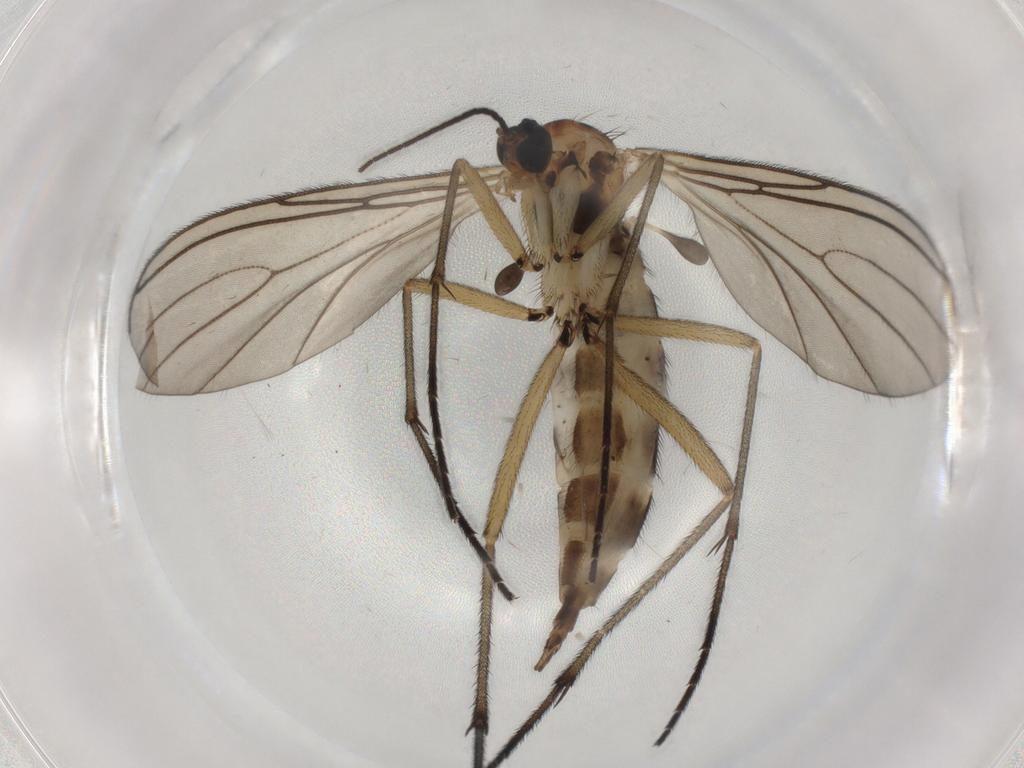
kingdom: Animalia
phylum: Arthropoda
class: Insecta
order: Diptera
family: Sciaridae
